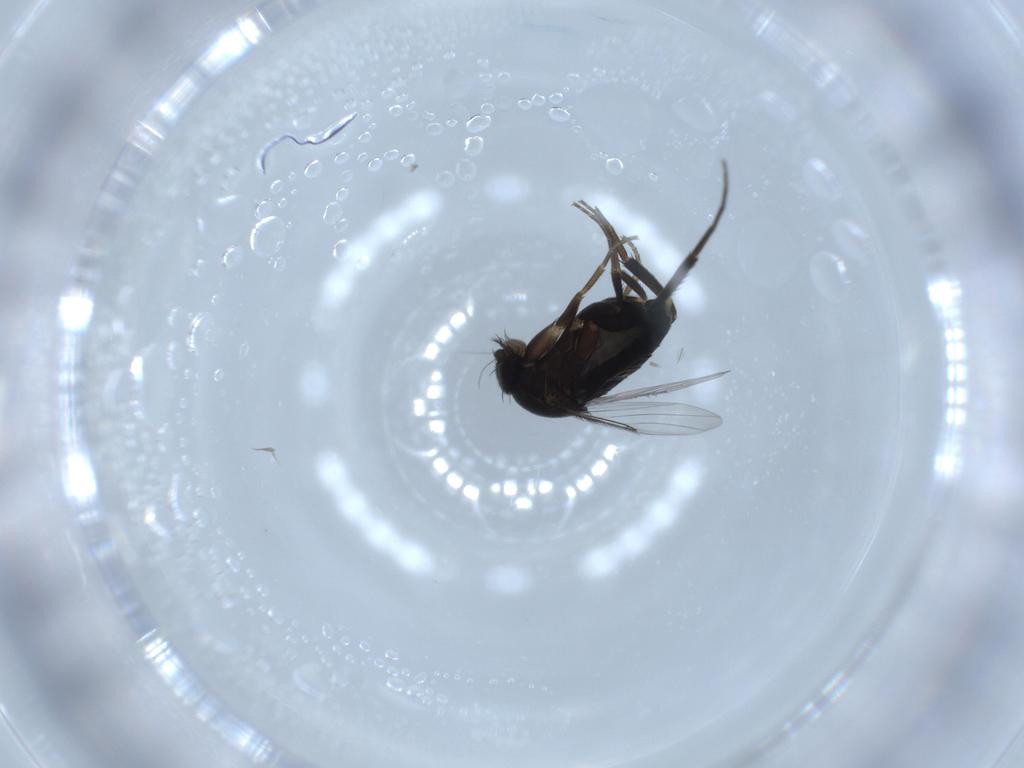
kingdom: Animalia
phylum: Arthropoda
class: Insecta
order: Diptera
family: Phoridae
